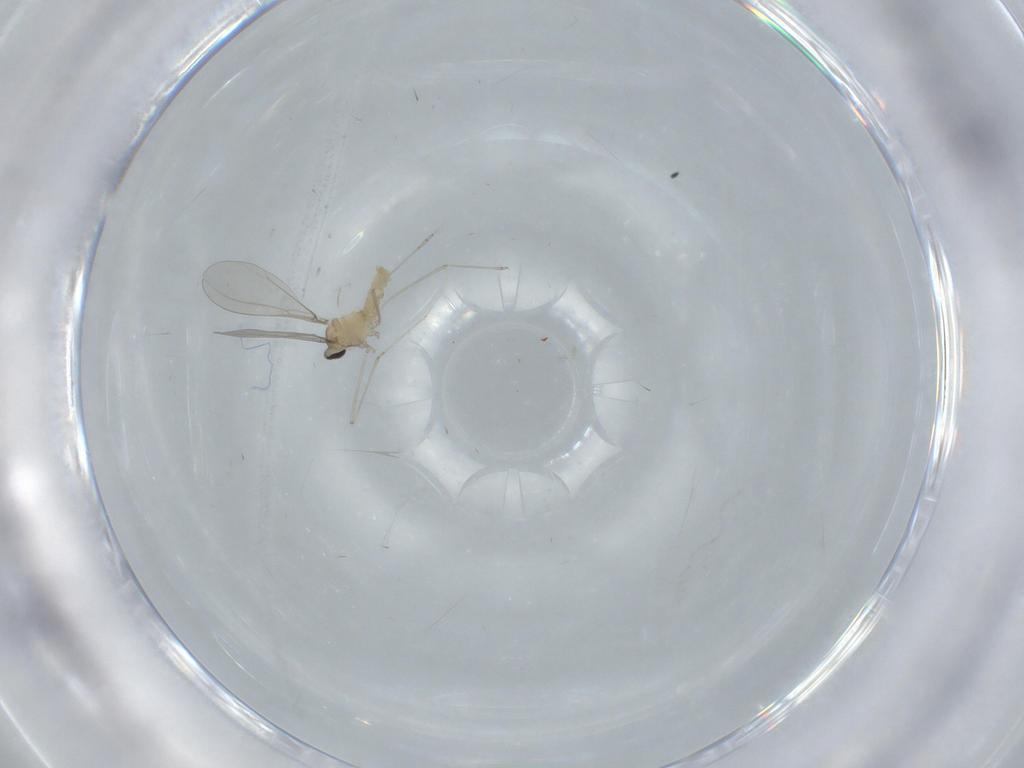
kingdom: Animalia
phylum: Arthropoda
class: Insecta
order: Diptera
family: Cecidomyiidae
